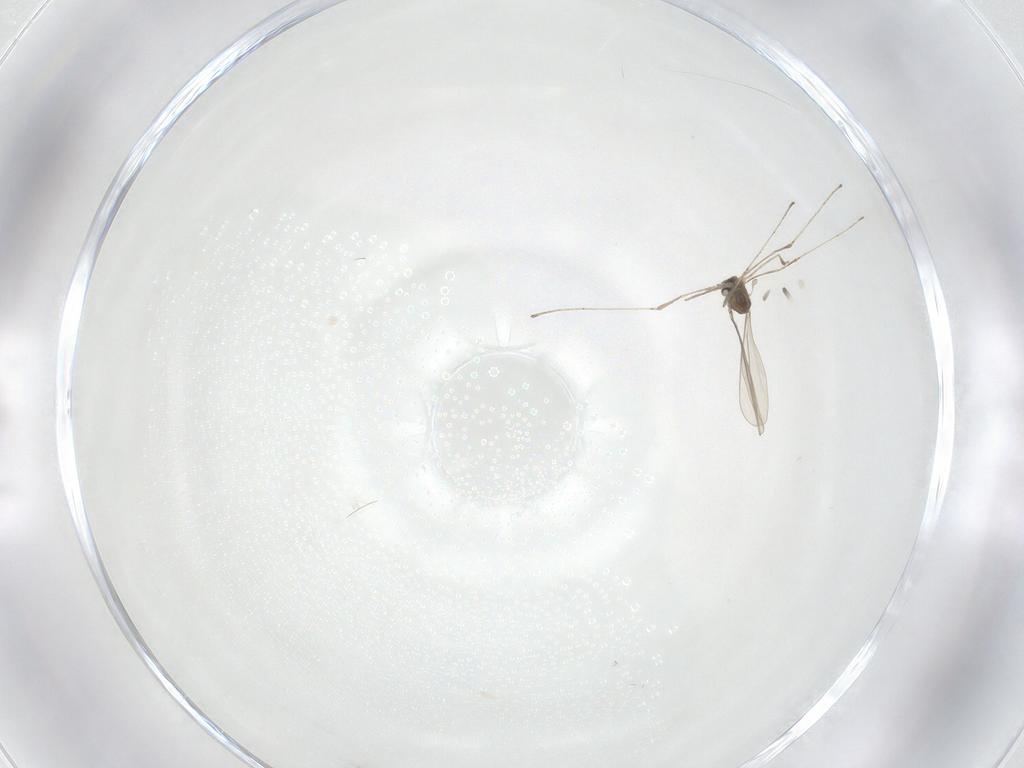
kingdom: Animalia
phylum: Arthropoda
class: Insecta
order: Diptera
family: Cecidomyiidae
